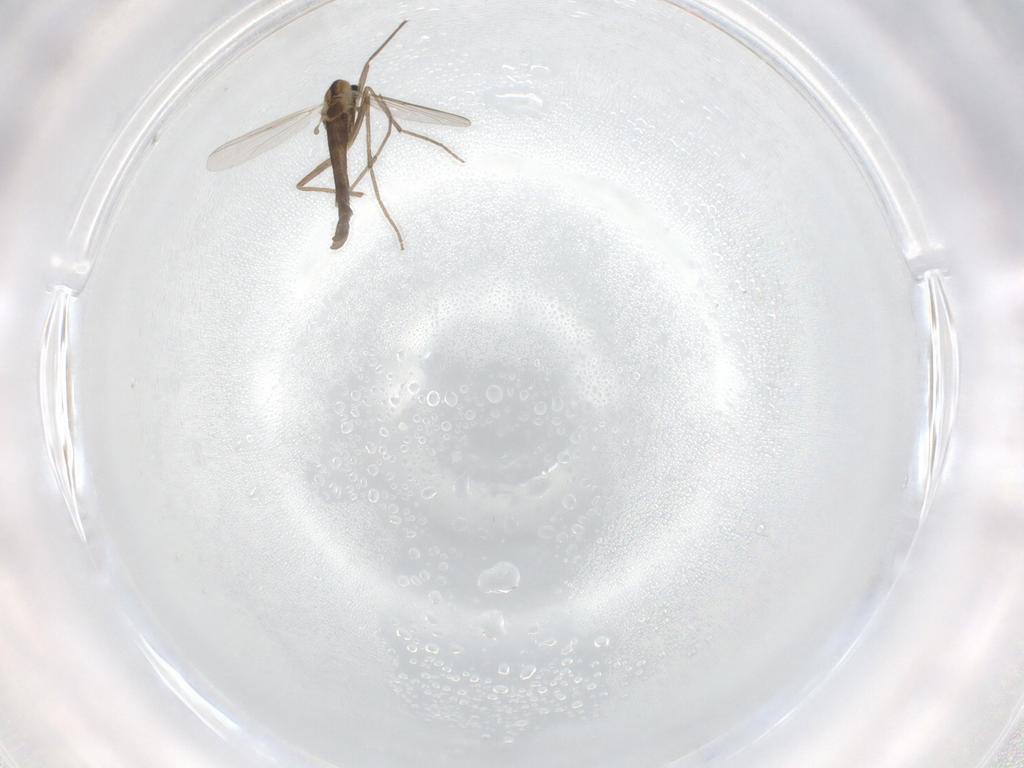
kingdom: Animalia
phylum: Arthropoda
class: Insecta
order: Diptera
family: Chironomidae
